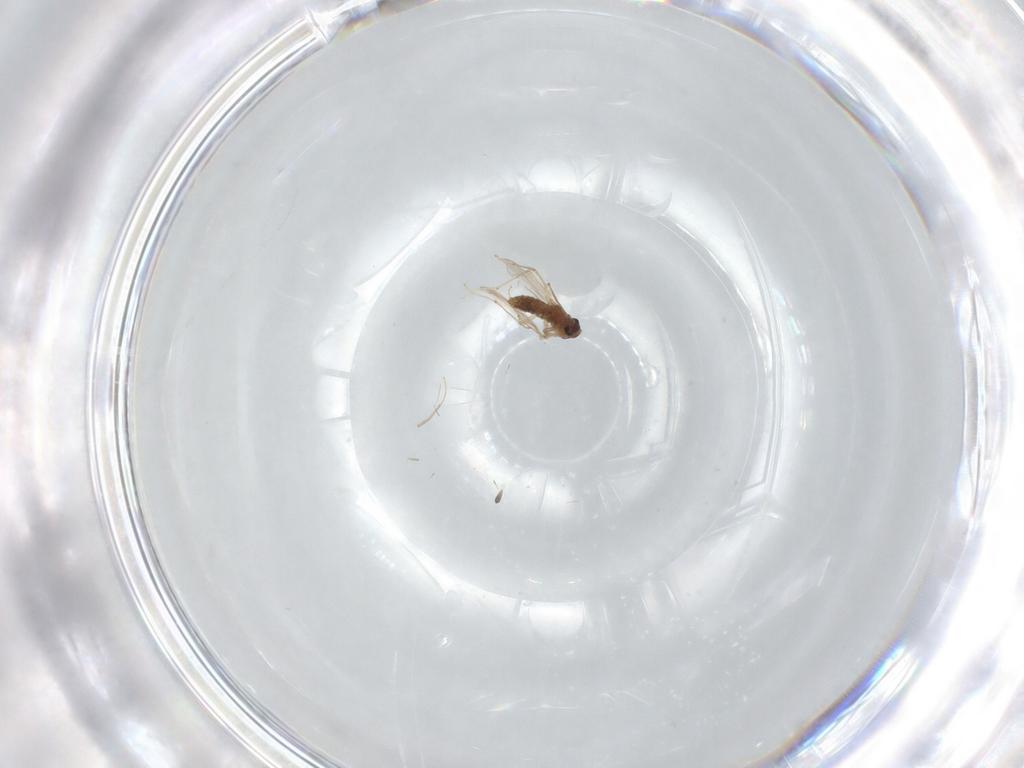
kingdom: Animalia
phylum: Arthropoda
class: Insecta
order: Diptera
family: Chironomidae
